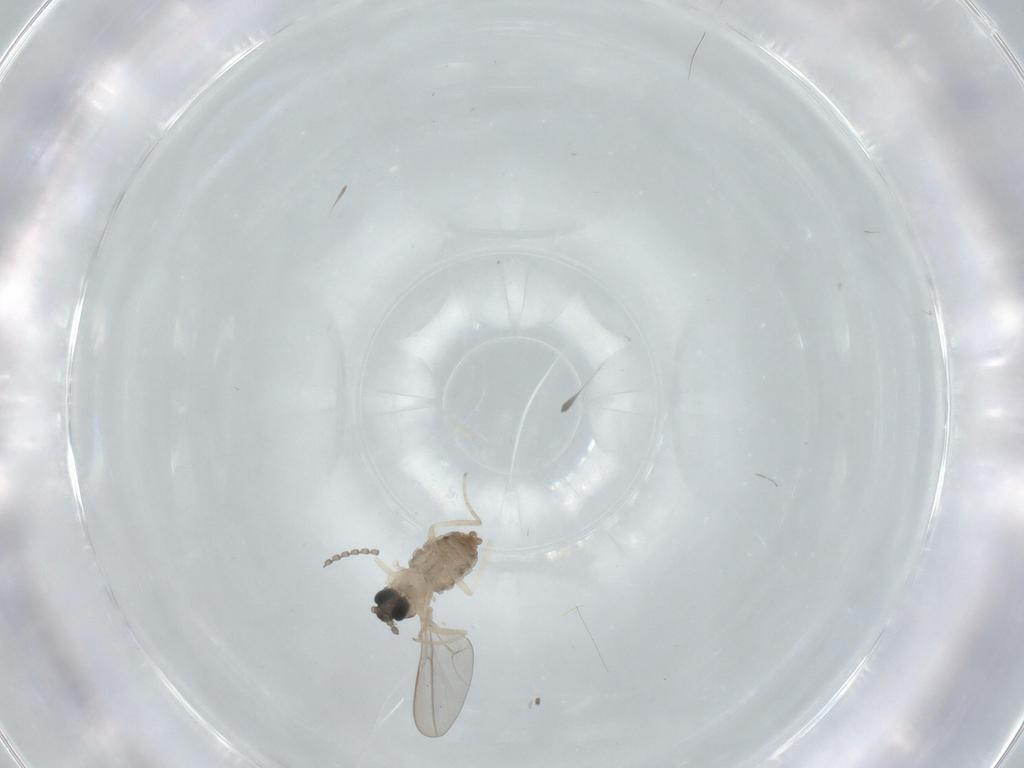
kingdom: Animalia
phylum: Arthropoda
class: Insecta
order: Diptera
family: Cecidomyiidae
